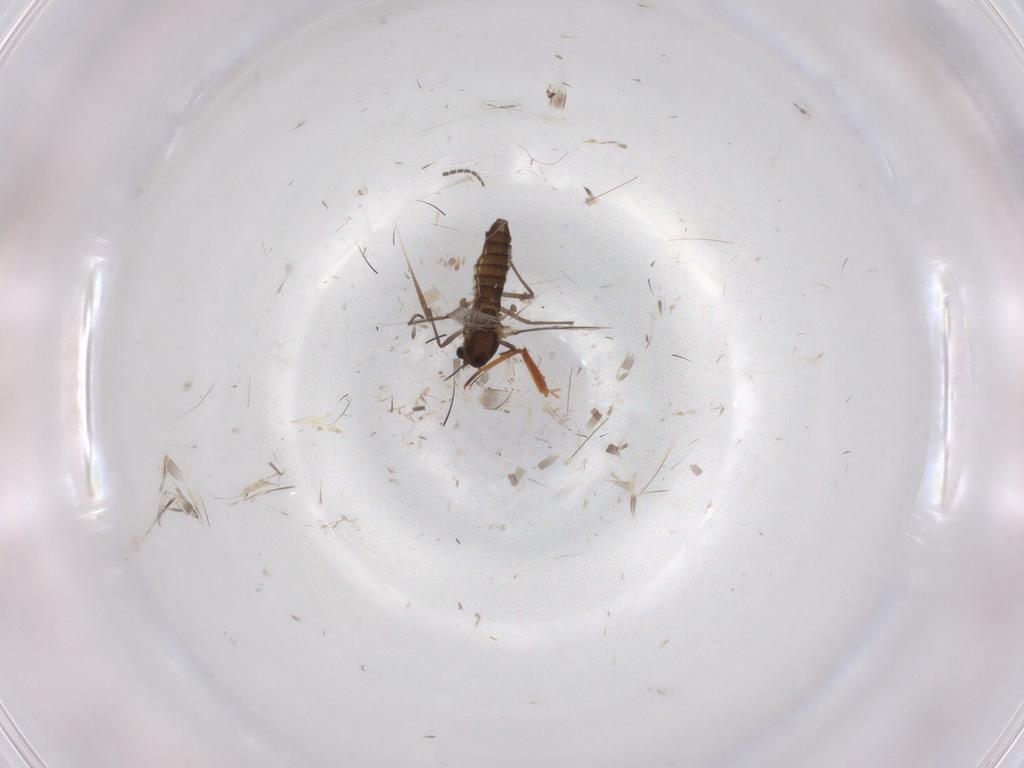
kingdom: Animalia
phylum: Arthropoda
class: Insecta
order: Diptera
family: Chironomidae
